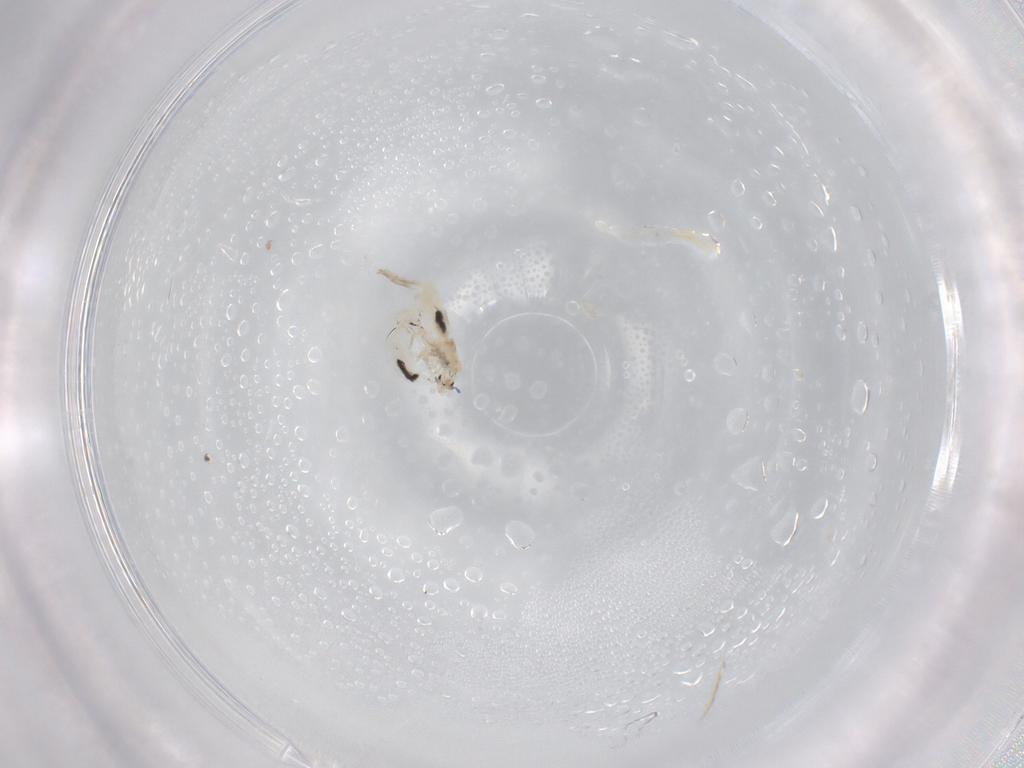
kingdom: Animalia
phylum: Arthropoda
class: Collembola
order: Entomobryomorpha
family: Entomobryidae
